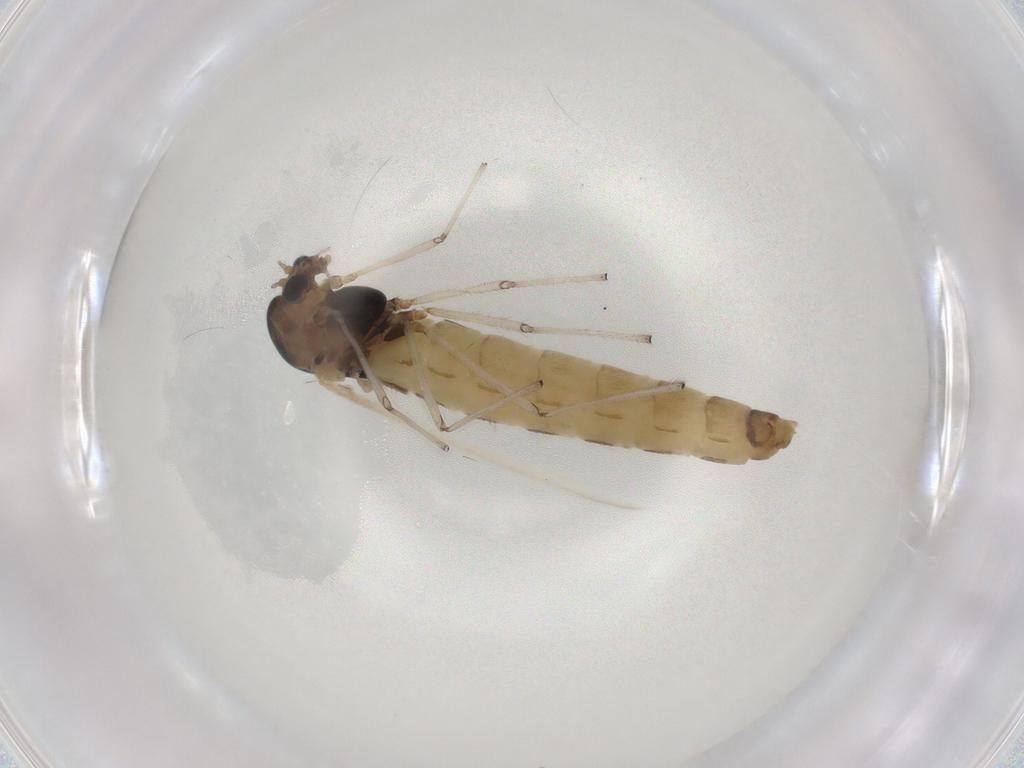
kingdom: Animalia
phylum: Arthropoda
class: Insecta
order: Diptera
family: Chironomidae
